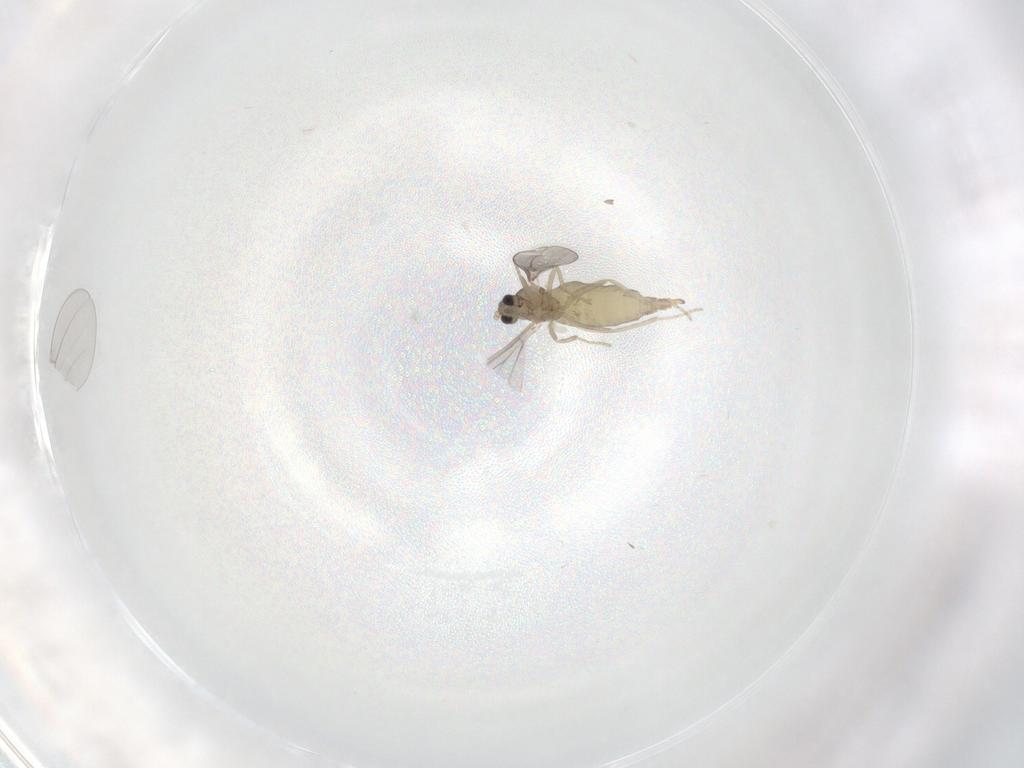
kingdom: Animalia
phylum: Arthropoda
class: Insecta
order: Diptera
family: Cecidomyiidae
